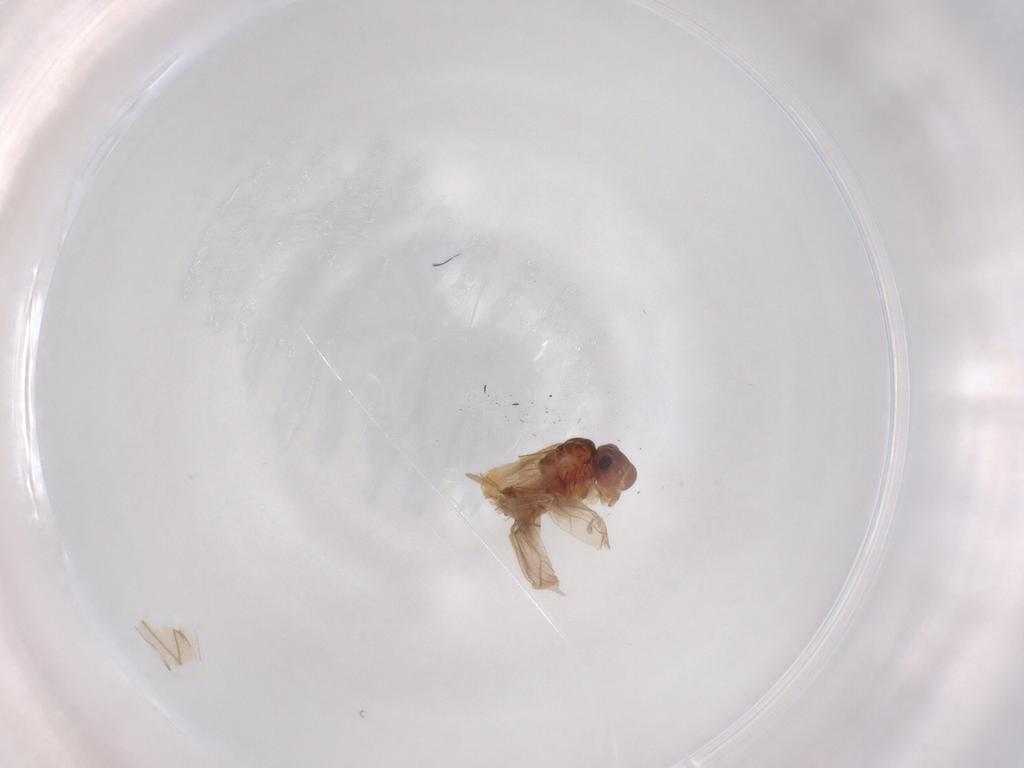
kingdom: Animalia
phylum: Arthropoda
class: Insecta
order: Psocodea
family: Caeciliusidae
